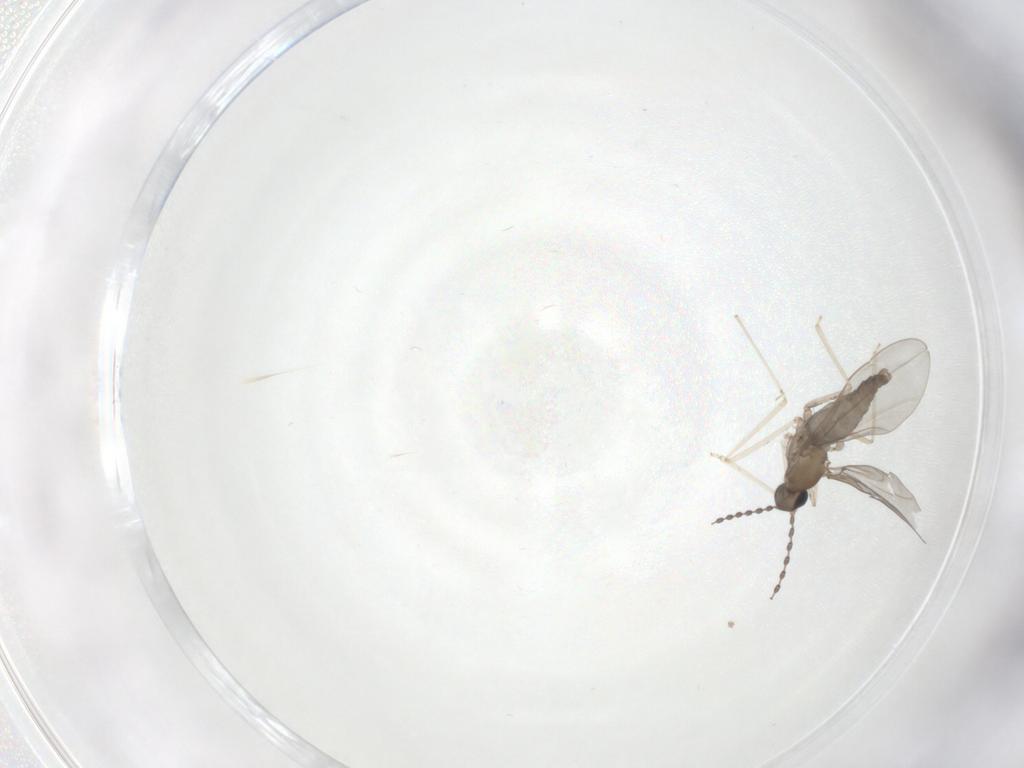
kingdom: Animalia
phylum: Arthropoda
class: Insecta
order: Diptera
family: Cecidomyiidae
